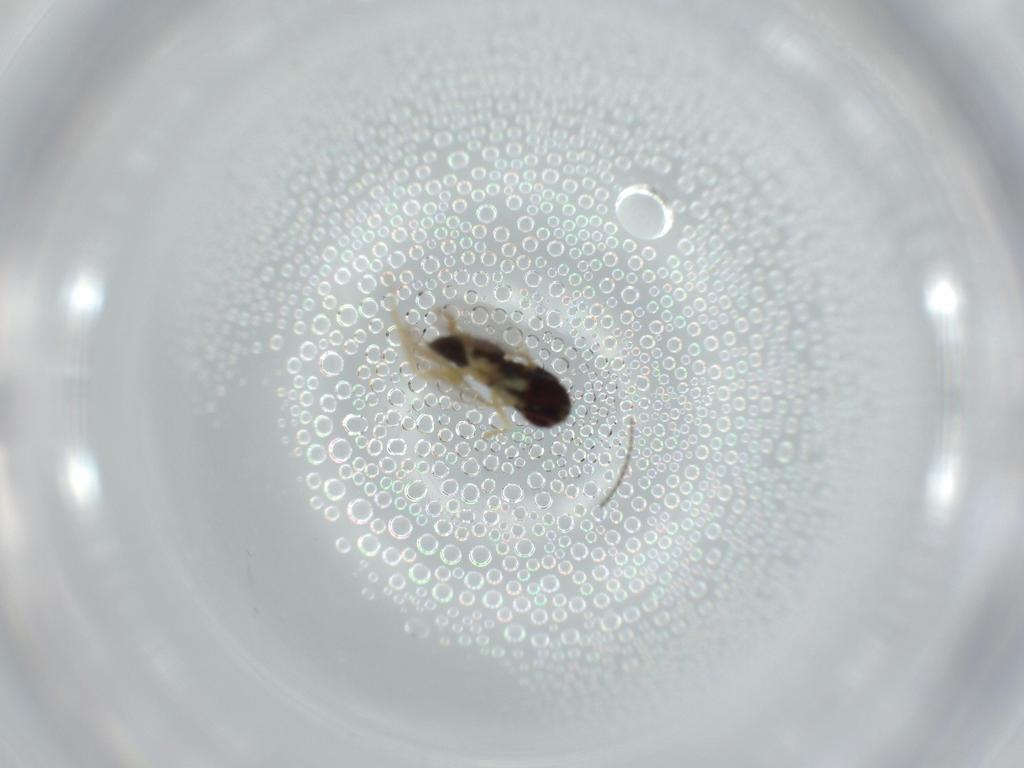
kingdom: Animalia
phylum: Arthropoda
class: Insecta
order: Diptera
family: Dolichopodidae
